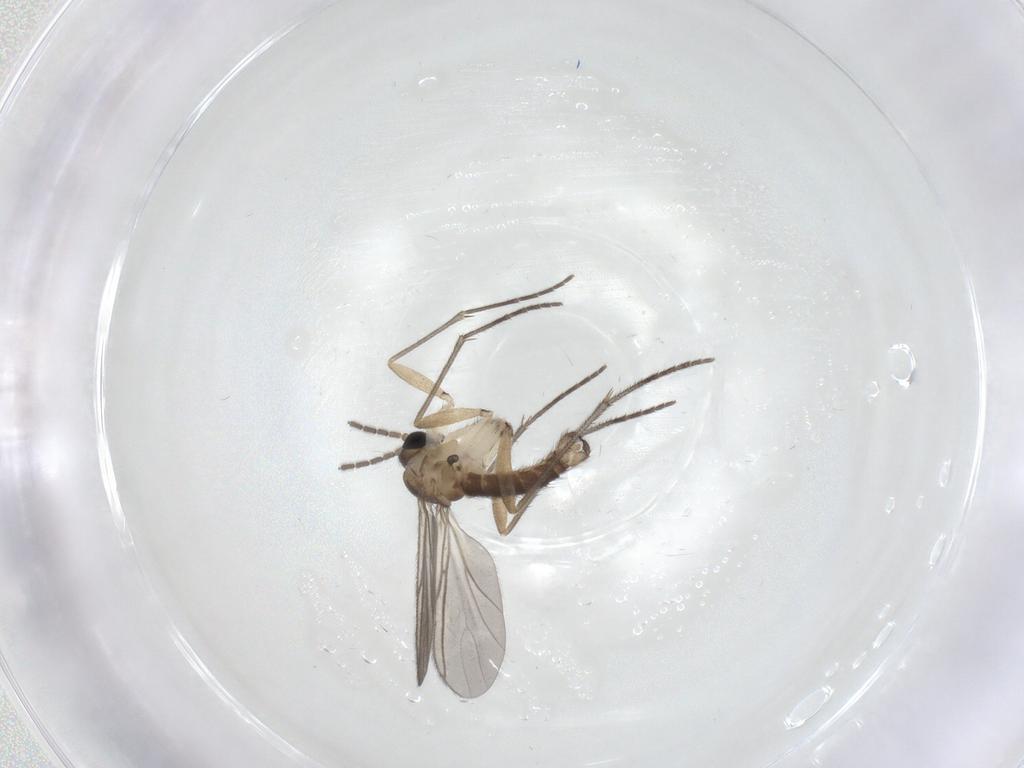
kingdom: Animalia
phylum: Arthropoda
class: Insecta
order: Diptera
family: Sciaridae
